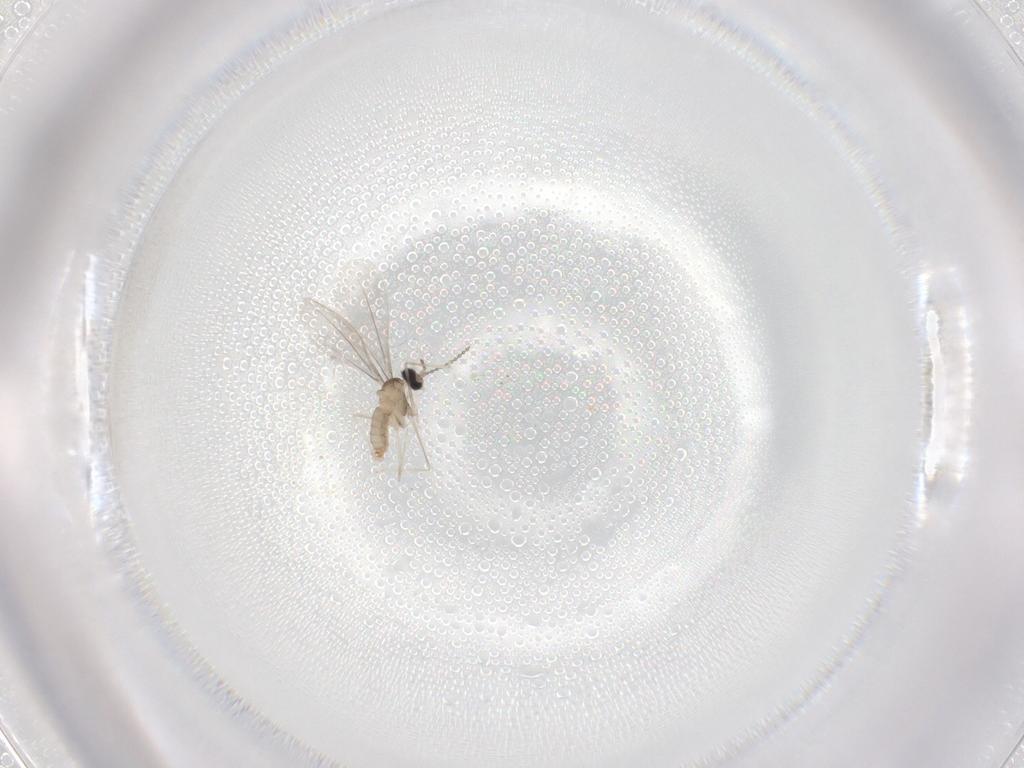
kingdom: Animalia
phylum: Arthropoda
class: Insecta
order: Diptera
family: Cecidomyiidae
